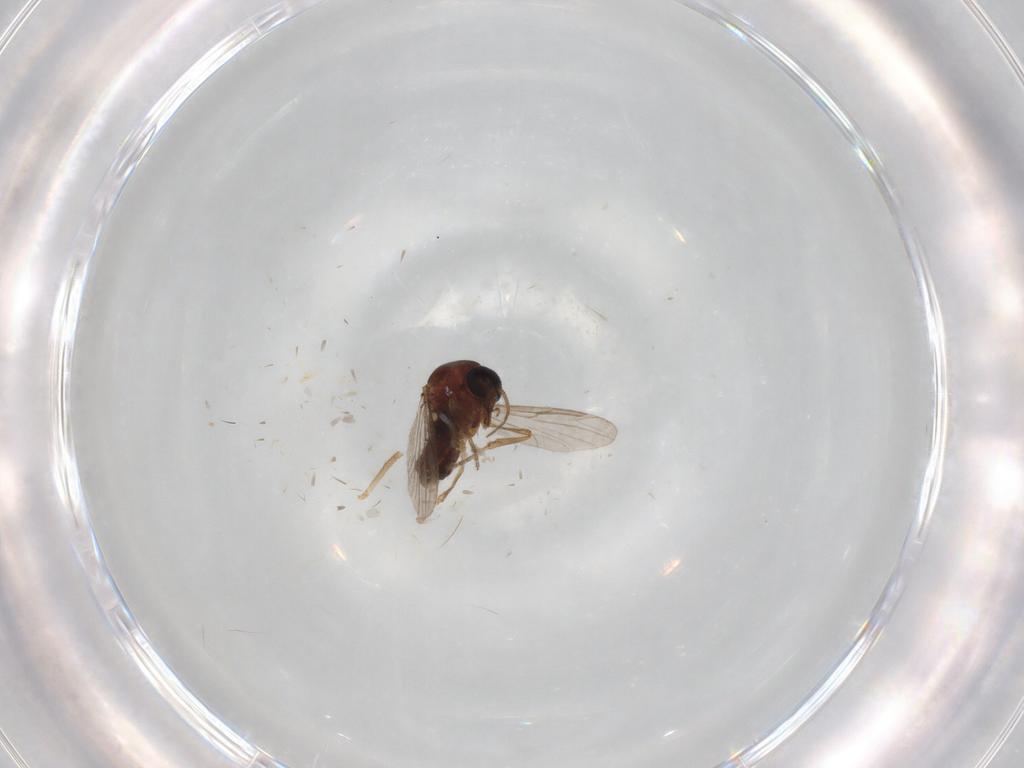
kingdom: Animalia
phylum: Arthropoda
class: Insecta
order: Diptera
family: Ceratopogonidae
